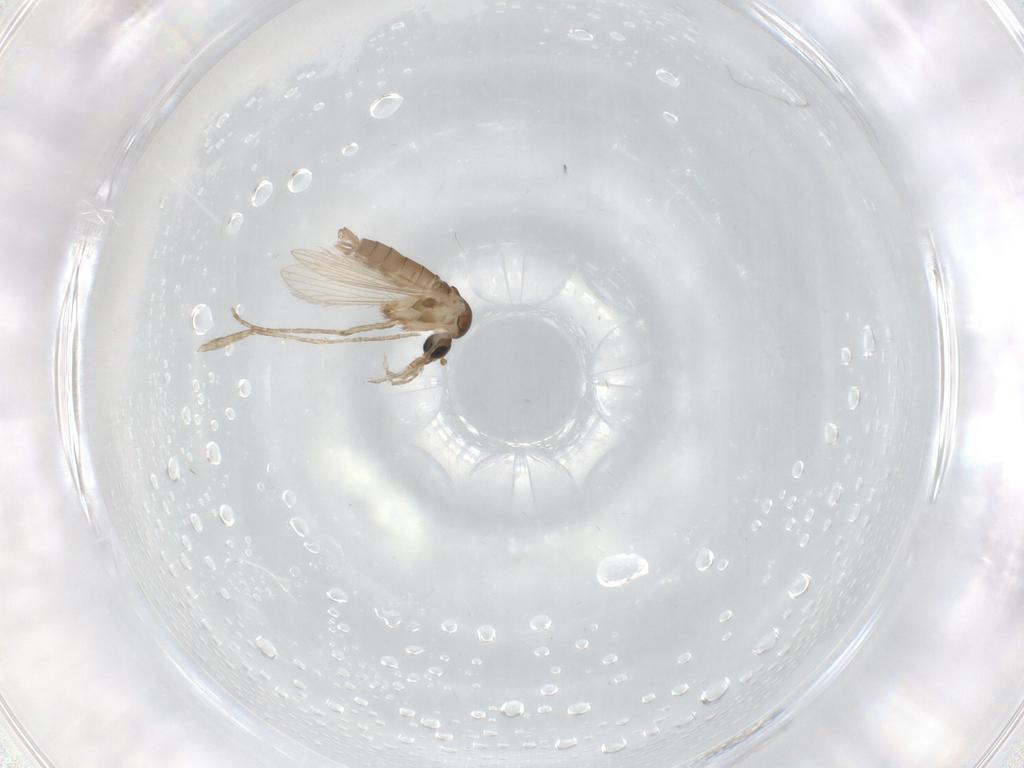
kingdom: Animalia
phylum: Arthropoda
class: Insecta
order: Diptera
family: Psychodidae
